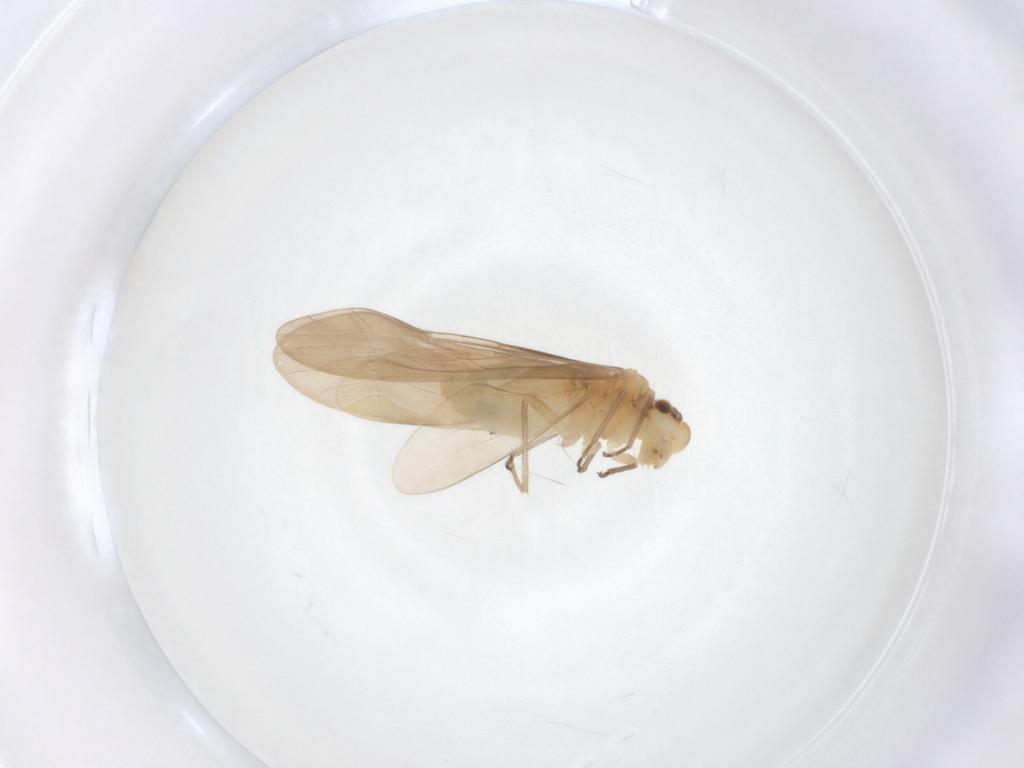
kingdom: Animalia
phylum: Arthropoda
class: Insecta
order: Psocodea
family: Caeciliusidae
